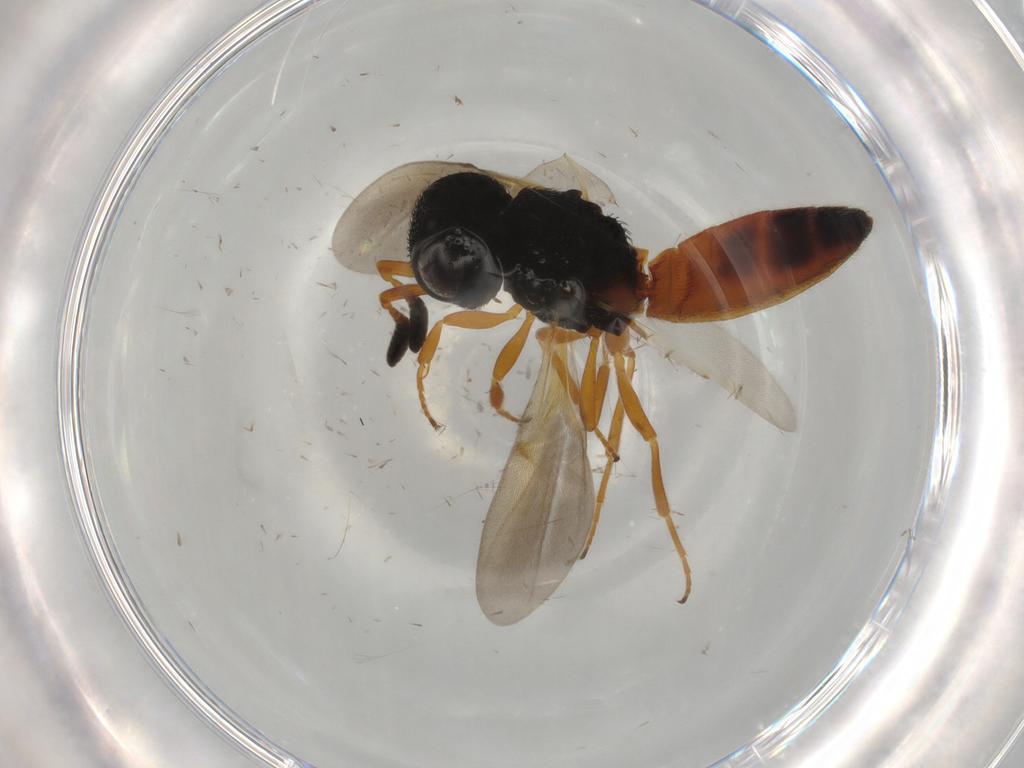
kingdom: Animalia
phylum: Arthropoda
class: Insecta
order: Hymenoptera
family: Scelionidae
